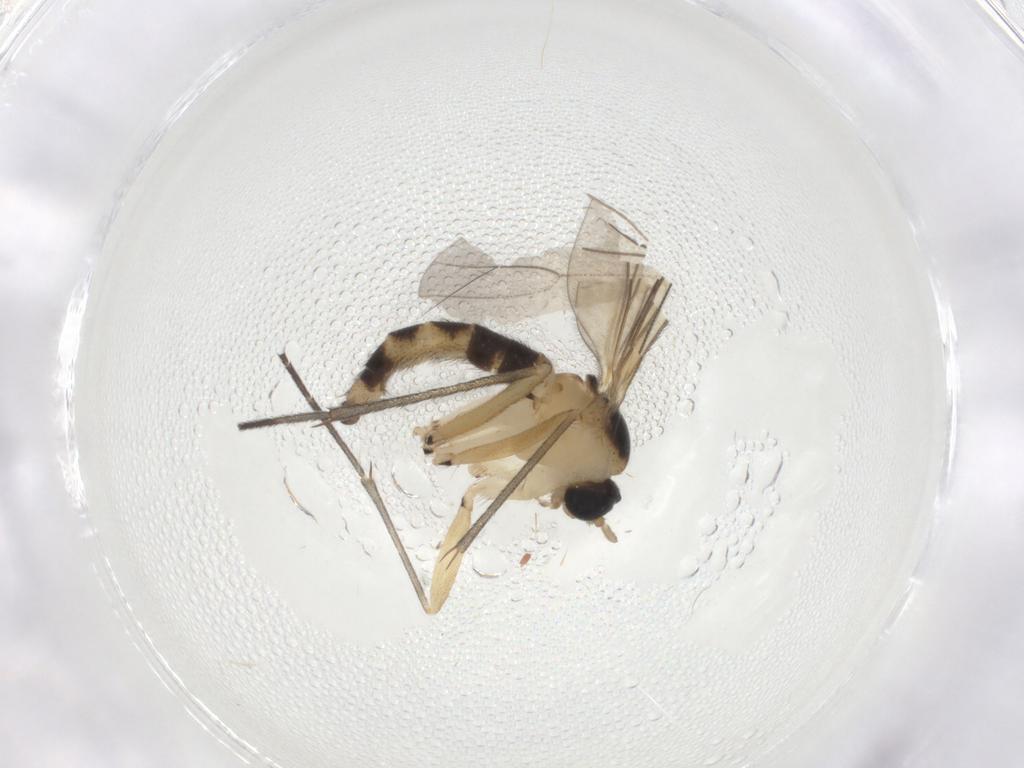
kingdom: Animalia
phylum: Arthropoda
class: Insecta
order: Diptera
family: Sciaridae
